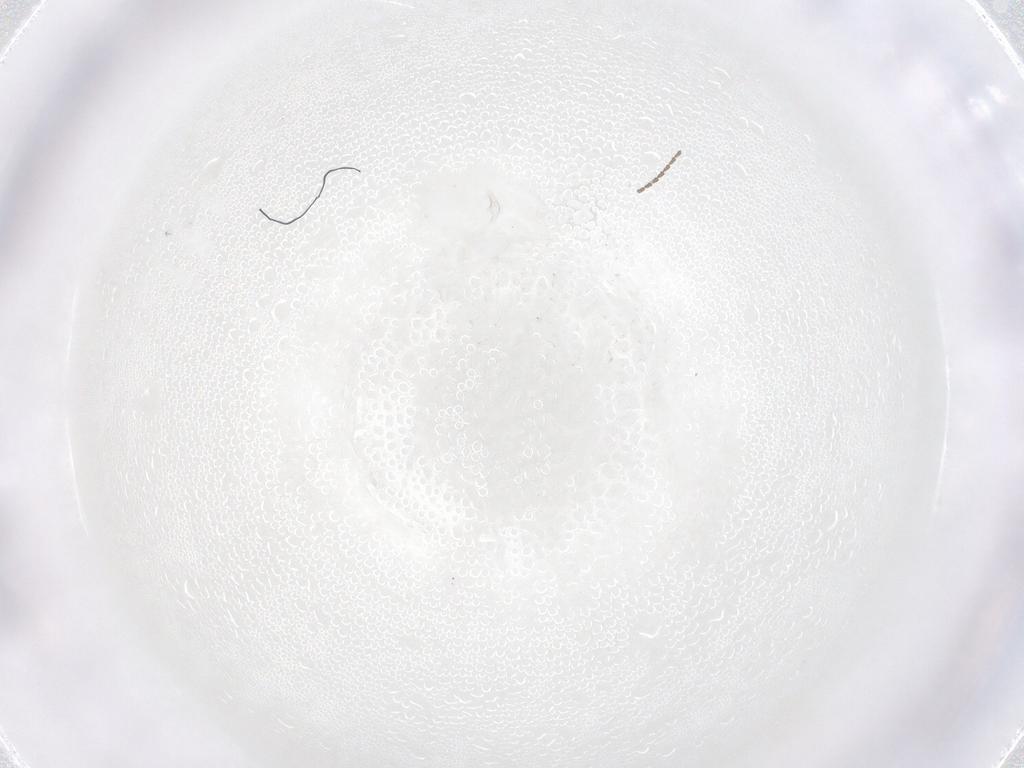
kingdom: Animalia
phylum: Arthropoda
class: Insecta
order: Diptera
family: Cecidomyiidae
